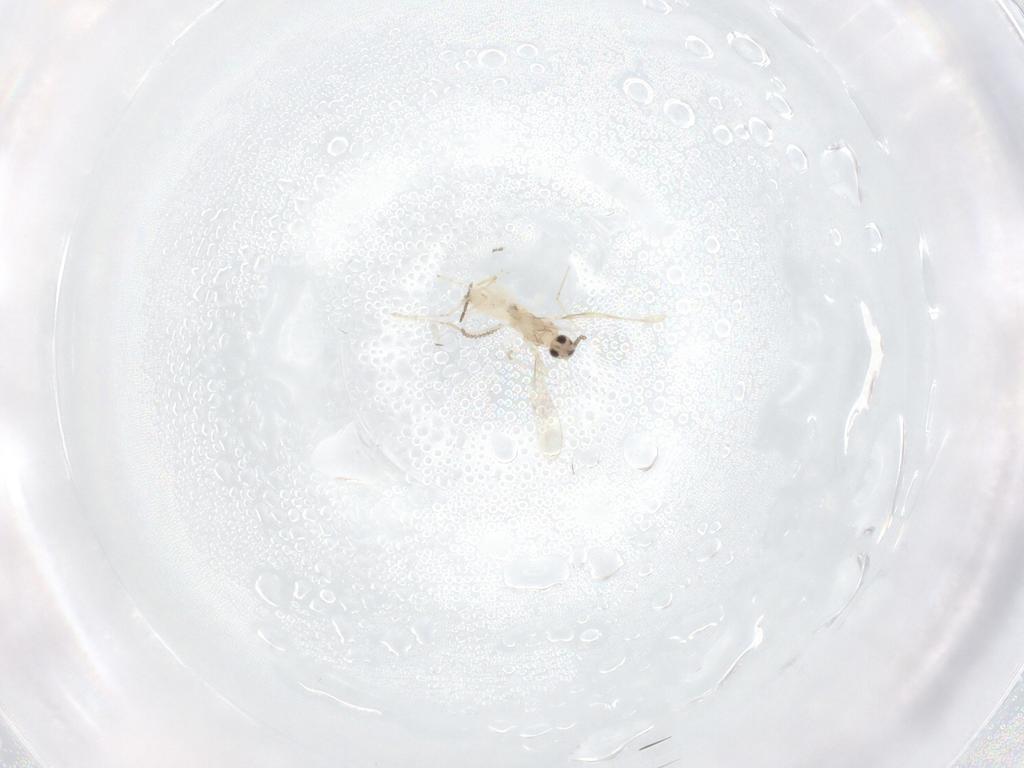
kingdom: Animalia
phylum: Arthropoda
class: Insecta
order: Diptera
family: Cecidomyiidae
